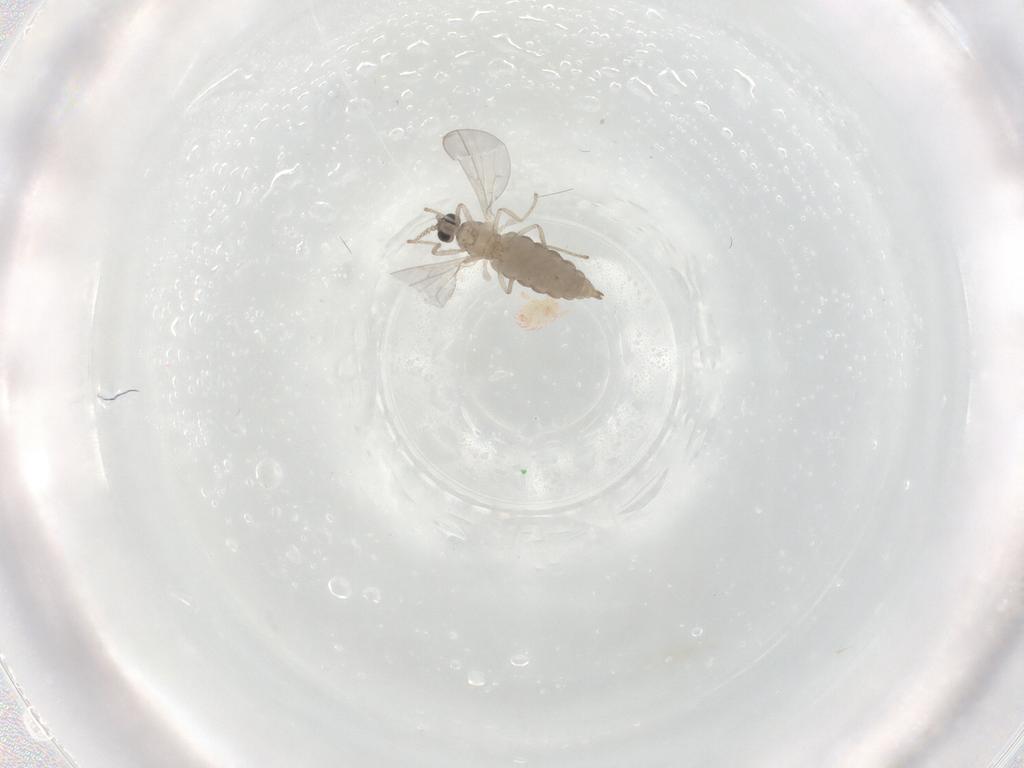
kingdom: Animalia
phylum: Arthropoda
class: Insecta
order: Diptera
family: Cecidomyiidae
